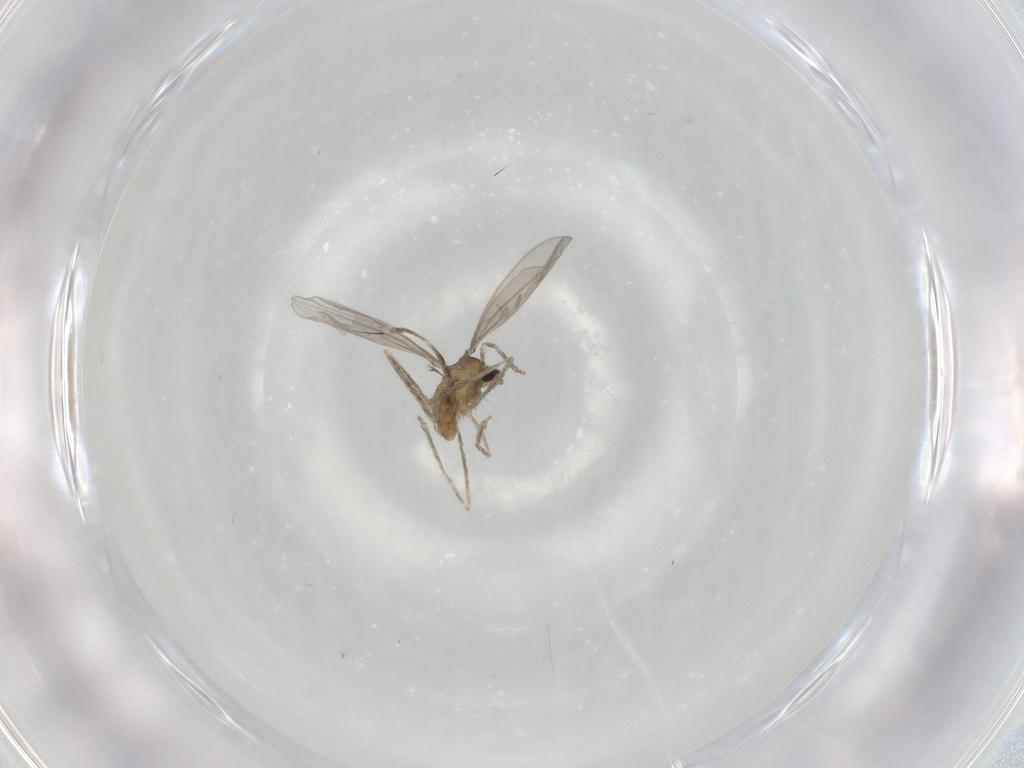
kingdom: Animalia
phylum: Arthropoda
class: Insecta
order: Diptera
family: Cecidomyiidae
